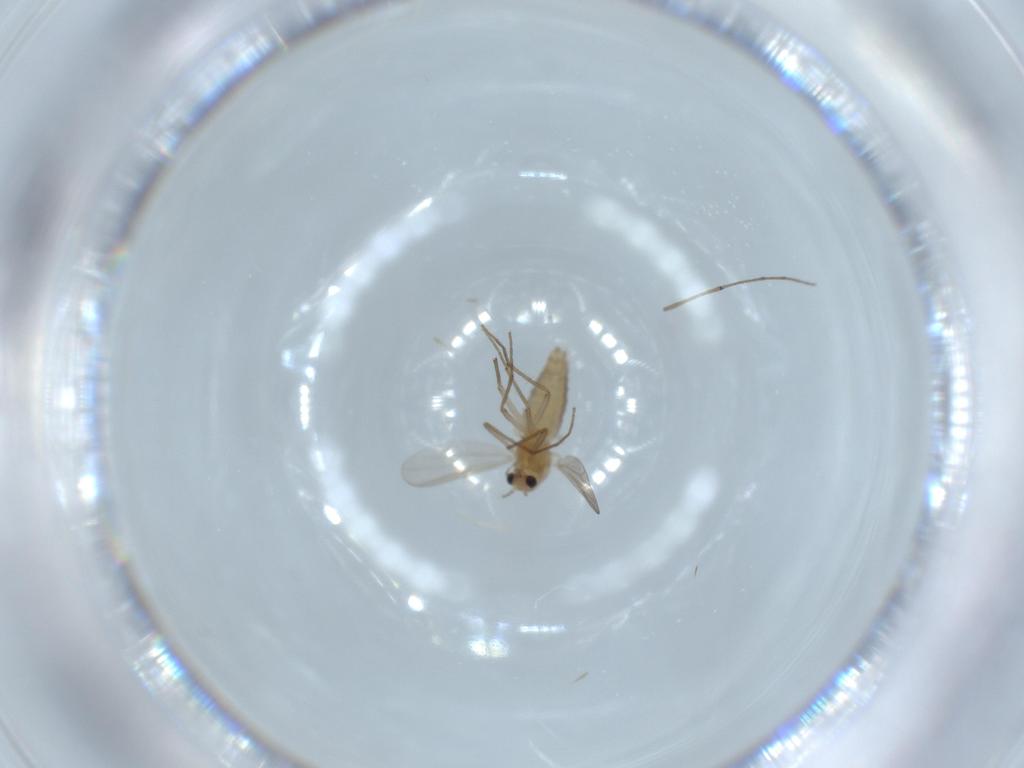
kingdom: Animalia
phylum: Arthropoda
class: Insecta
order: Diptera
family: Chironomidae
